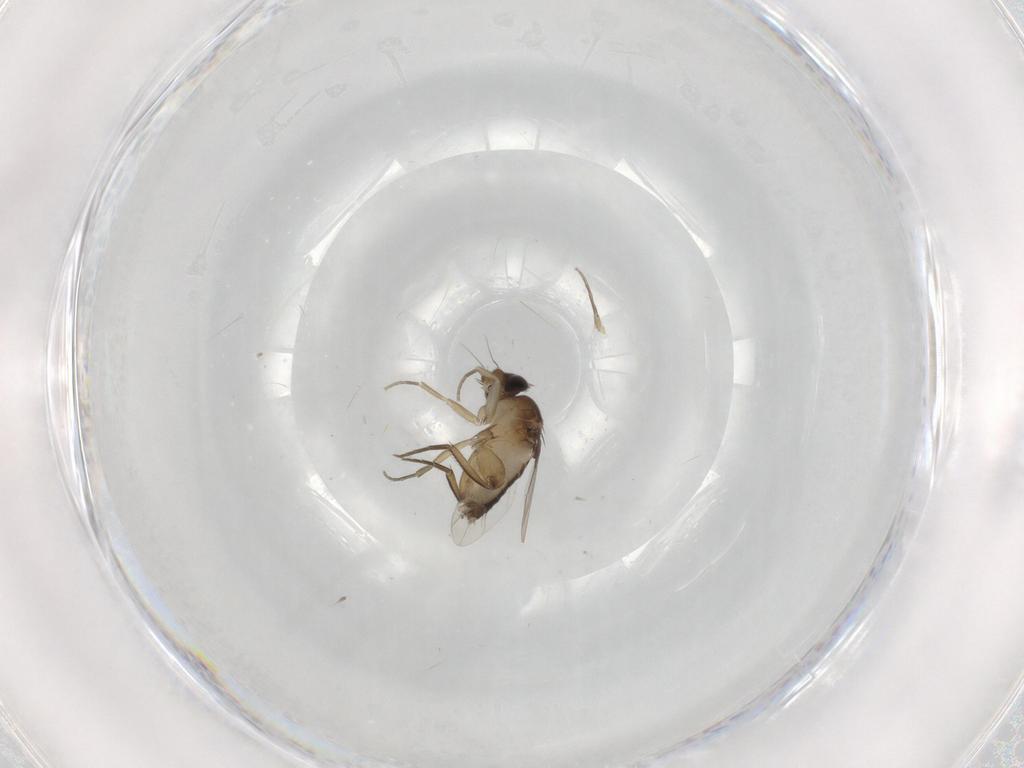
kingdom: Animalia
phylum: Arthropoda
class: Insecta
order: Diptera
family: Phoridae
